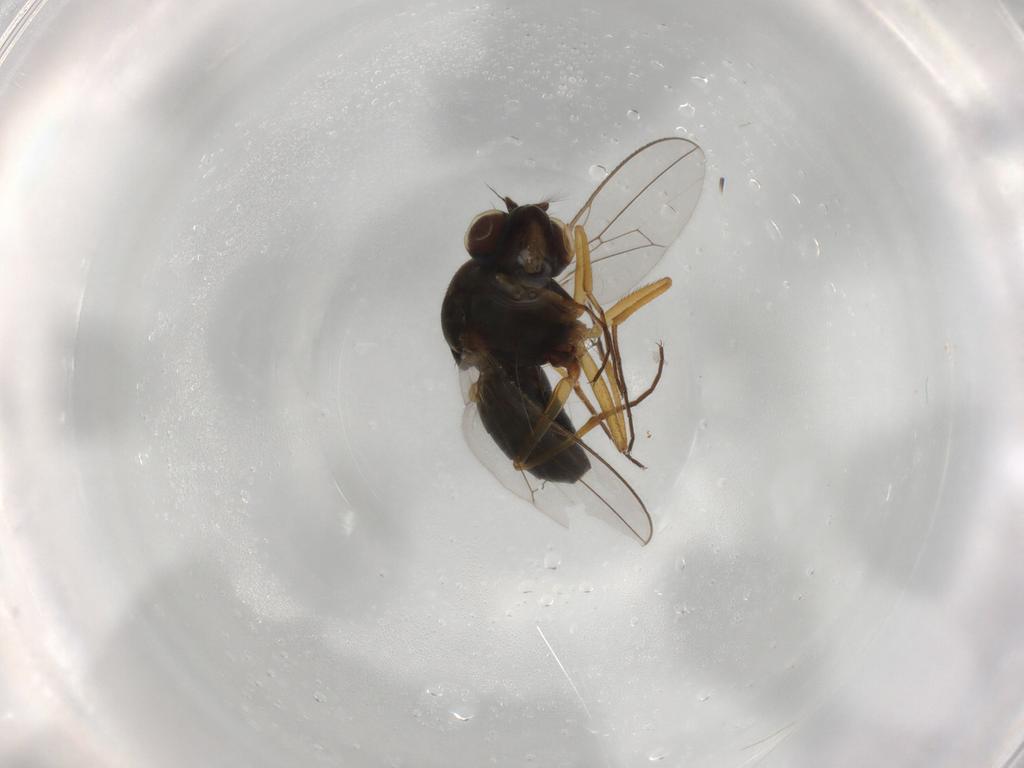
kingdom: Animalia
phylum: Arthropoda
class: Insecta
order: Diptera
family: Ephydridae
